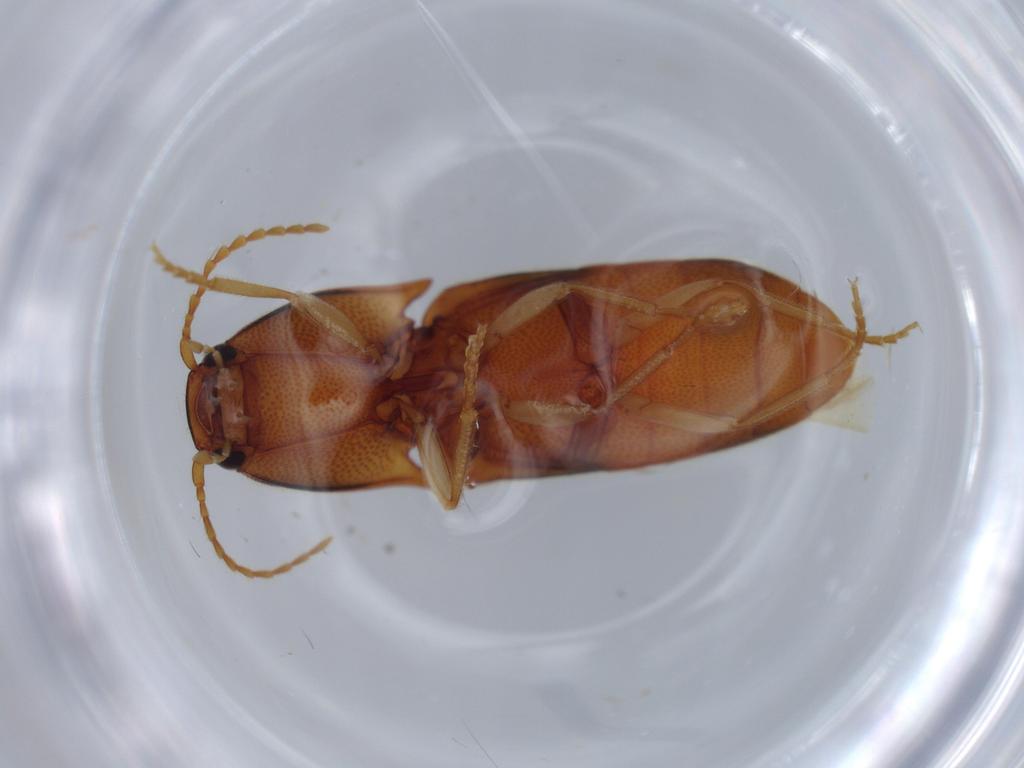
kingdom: Animalia
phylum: Arthropoda
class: Insecta
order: Coleoptera
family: Elateridae
